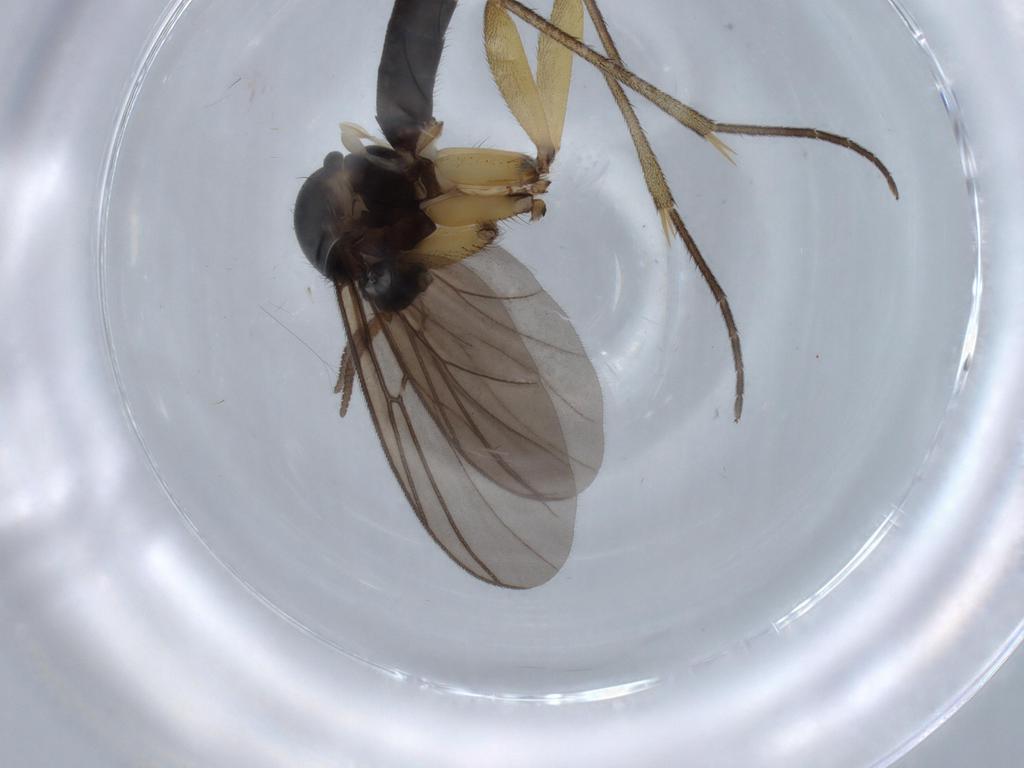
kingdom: Animalia
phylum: Arthropoda
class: Insecta
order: Diptera
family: Mycetophilidae
